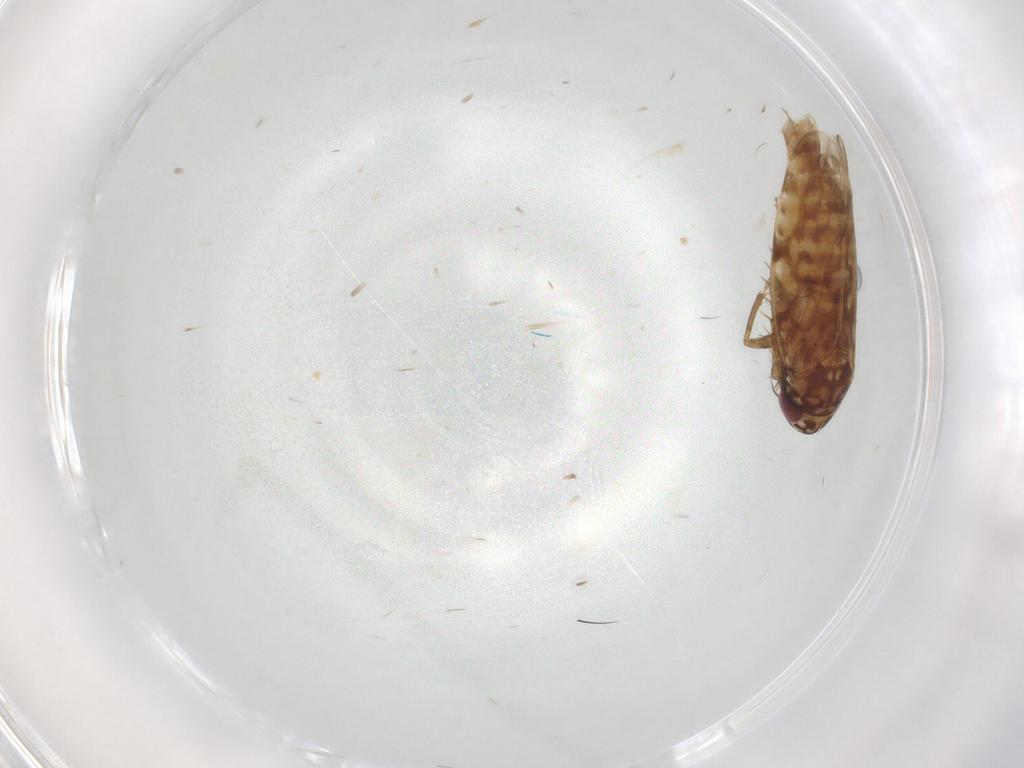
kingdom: Animalia
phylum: Arthropoda
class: Insecta
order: Hemiptera
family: Cicadellidae
